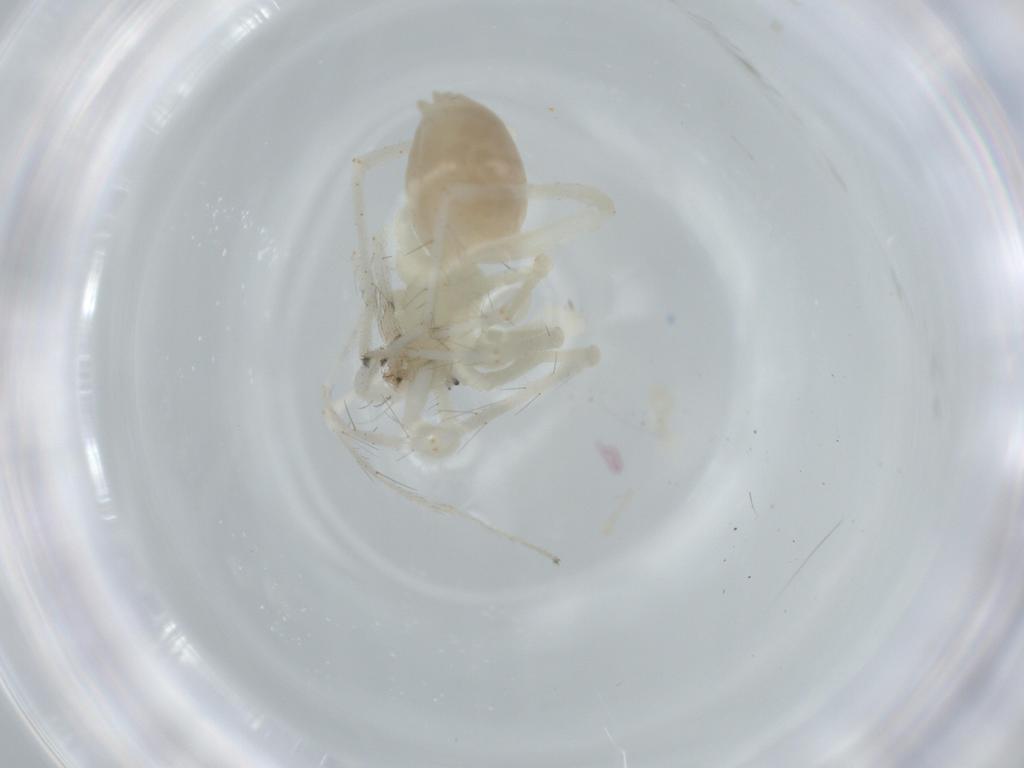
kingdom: Animalia
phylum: Arthropoda
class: Arachnida
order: Araneae
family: Anyphaenidae
